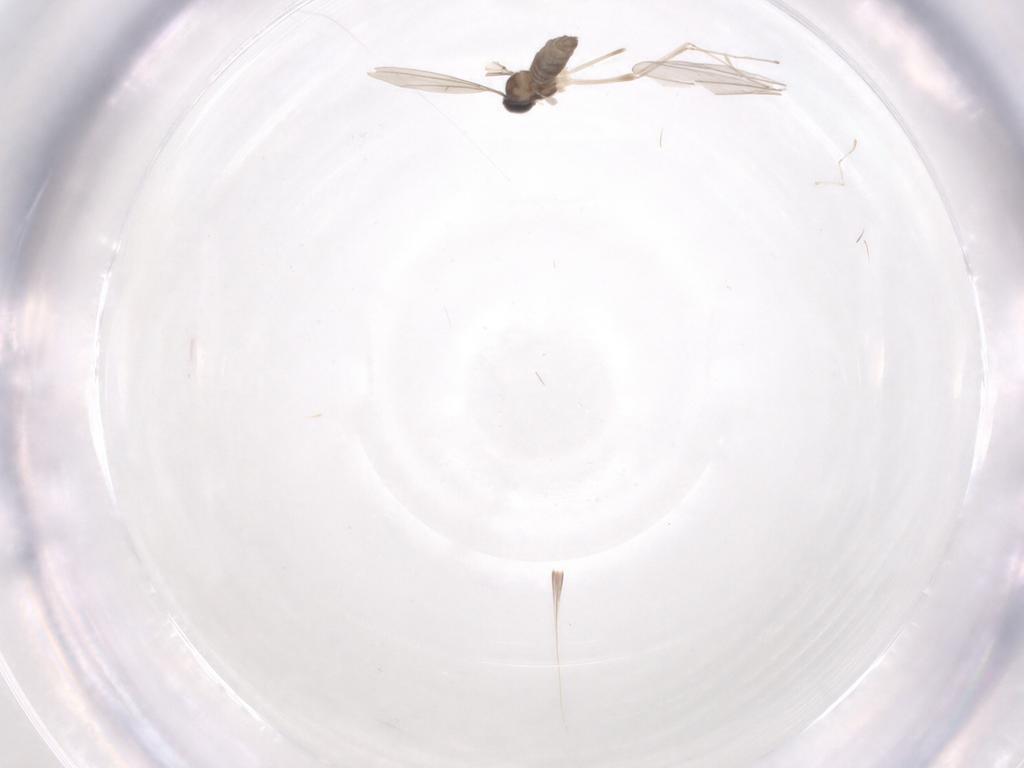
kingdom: Animalia
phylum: Arthropoda
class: Insecta
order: Diptera
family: Cecidomyiidae
